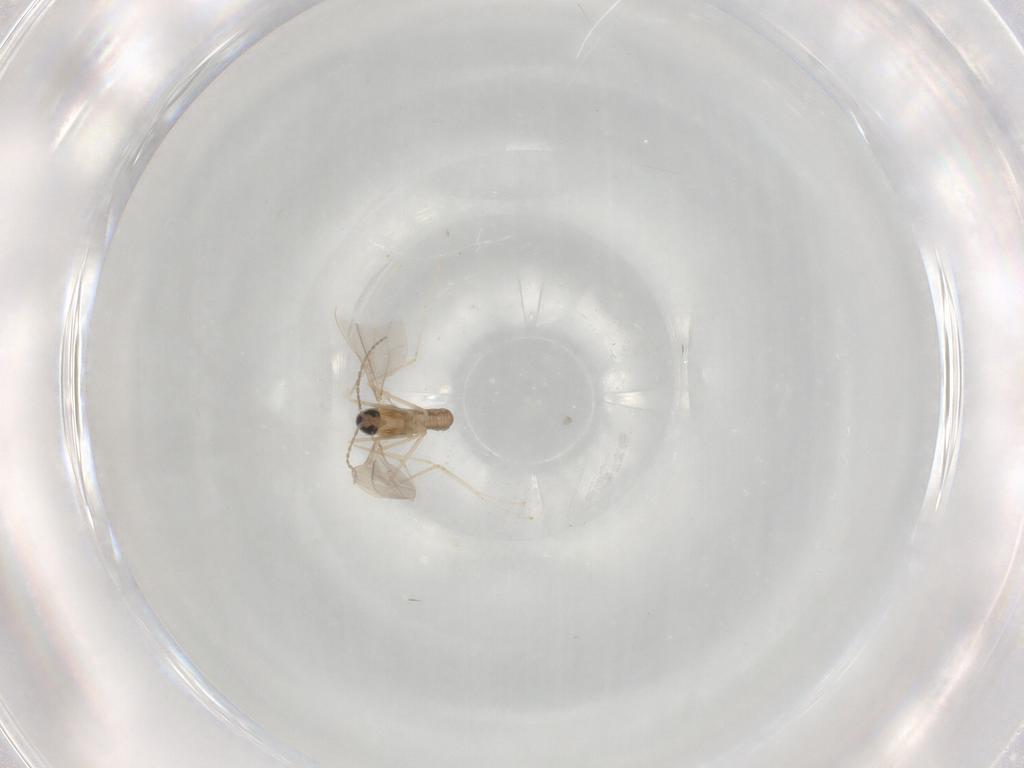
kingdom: Animalia
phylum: Arthropoda
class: Insecta
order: Diptera
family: Cecidomyiidae
